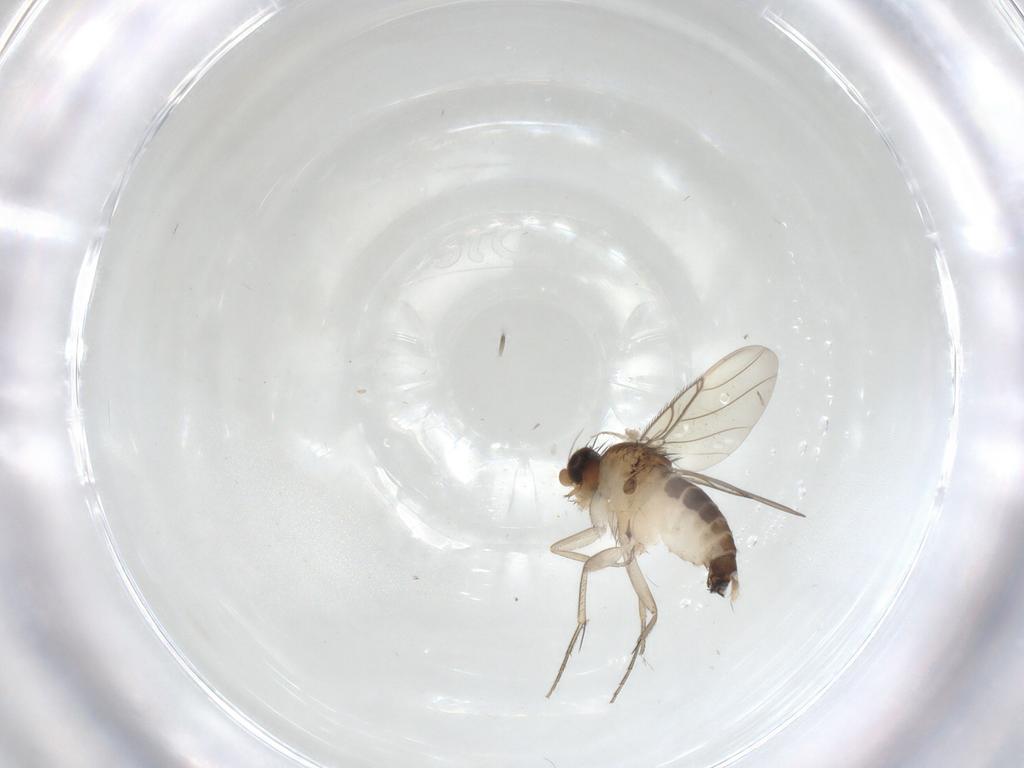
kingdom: Animalia
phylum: Arthropoda
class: Insecta
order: Diptera
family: Phoridae
